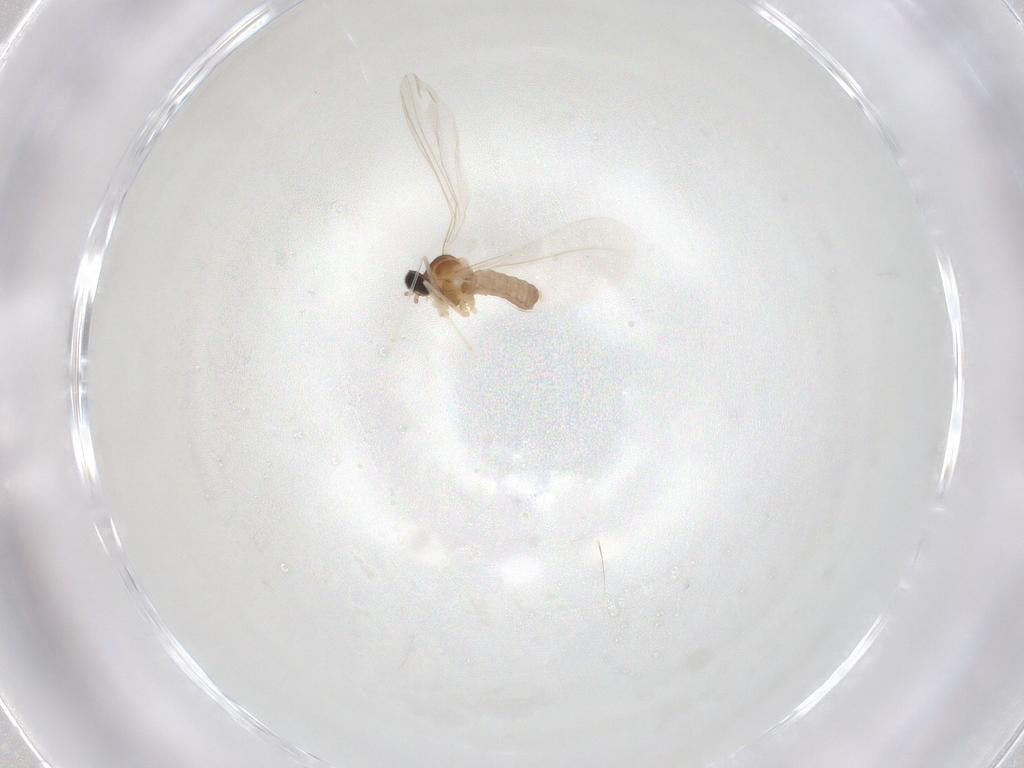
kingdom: Animalia
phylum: Arthropoda
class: Insecta
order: Diptera
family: Cecidomyiidae
